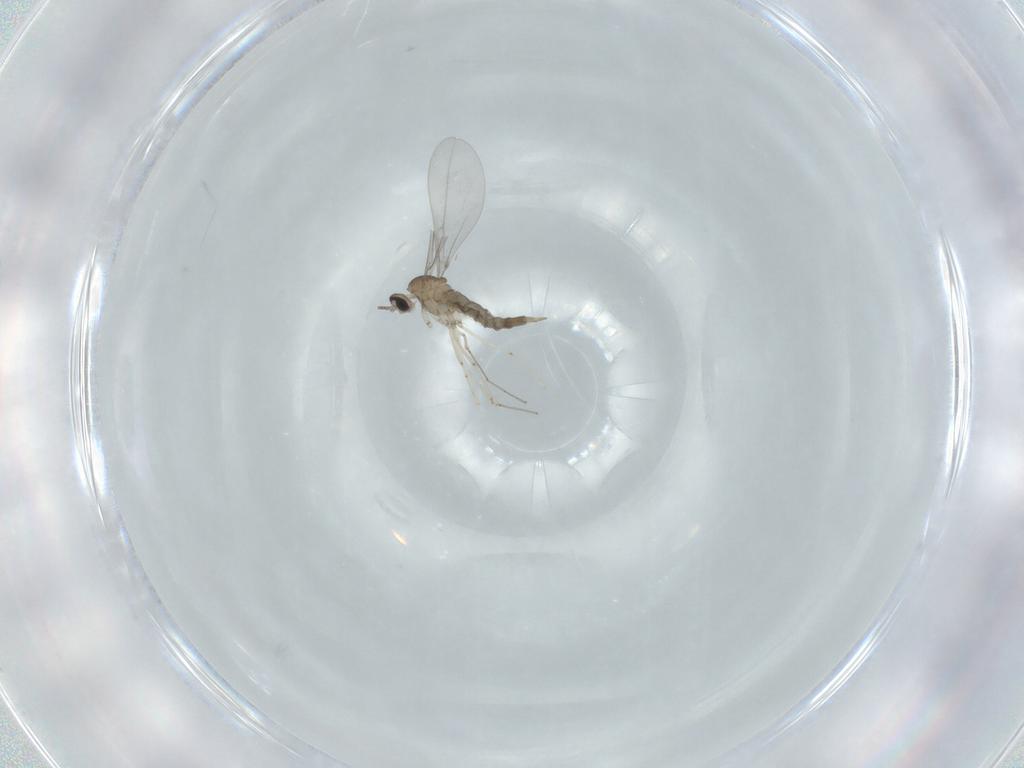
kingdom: Animalia
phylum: Arthropoda
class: Insecta
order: Diptera
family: Cecidomyiidae
